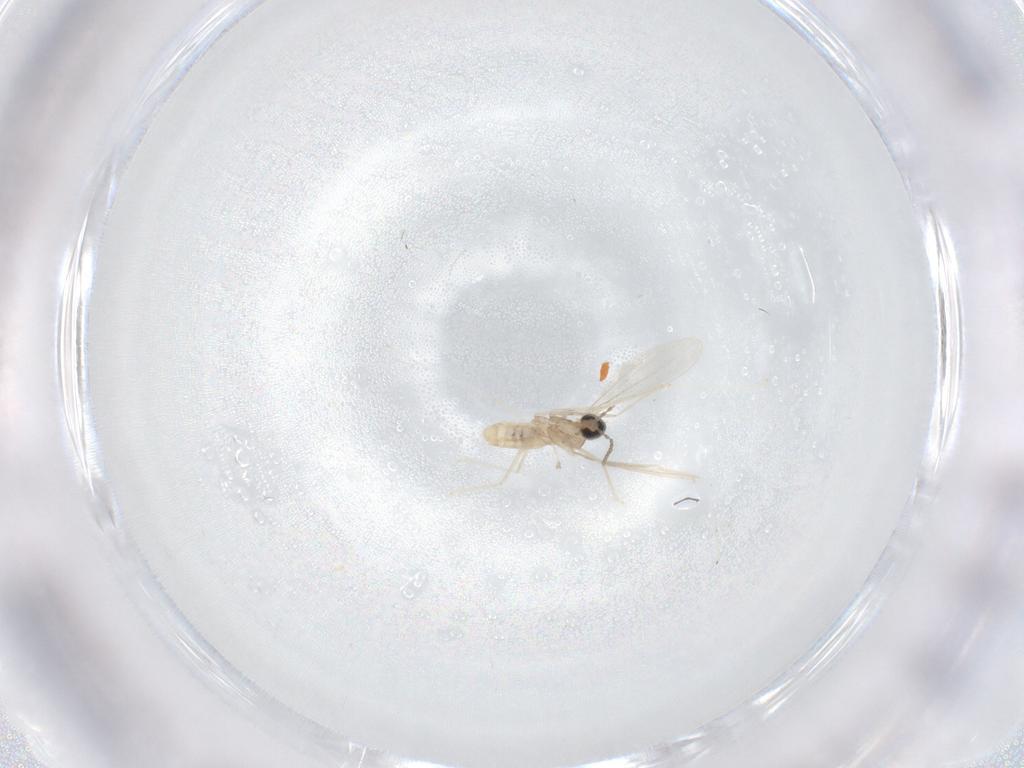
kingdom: Animalia
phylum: Arthropoda
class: Insecta
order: Diptera
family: Cecidomyiidae
